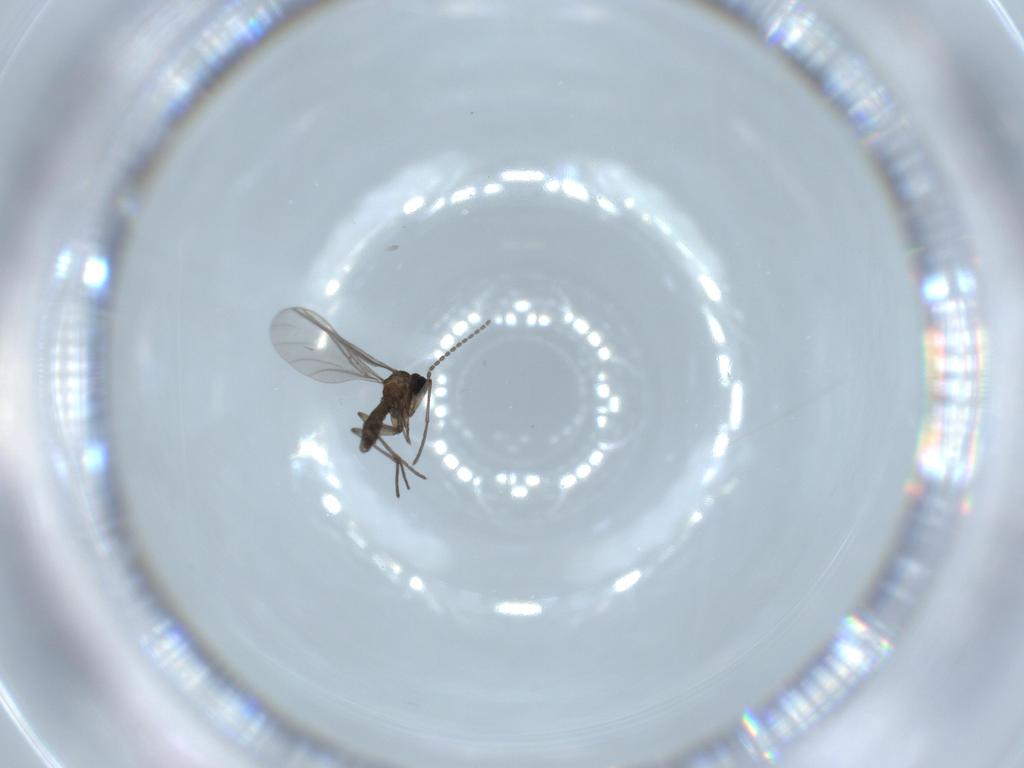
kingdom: Animalia
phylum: Arthropoda
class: Insecta
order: Diptera
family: Sciaridae
